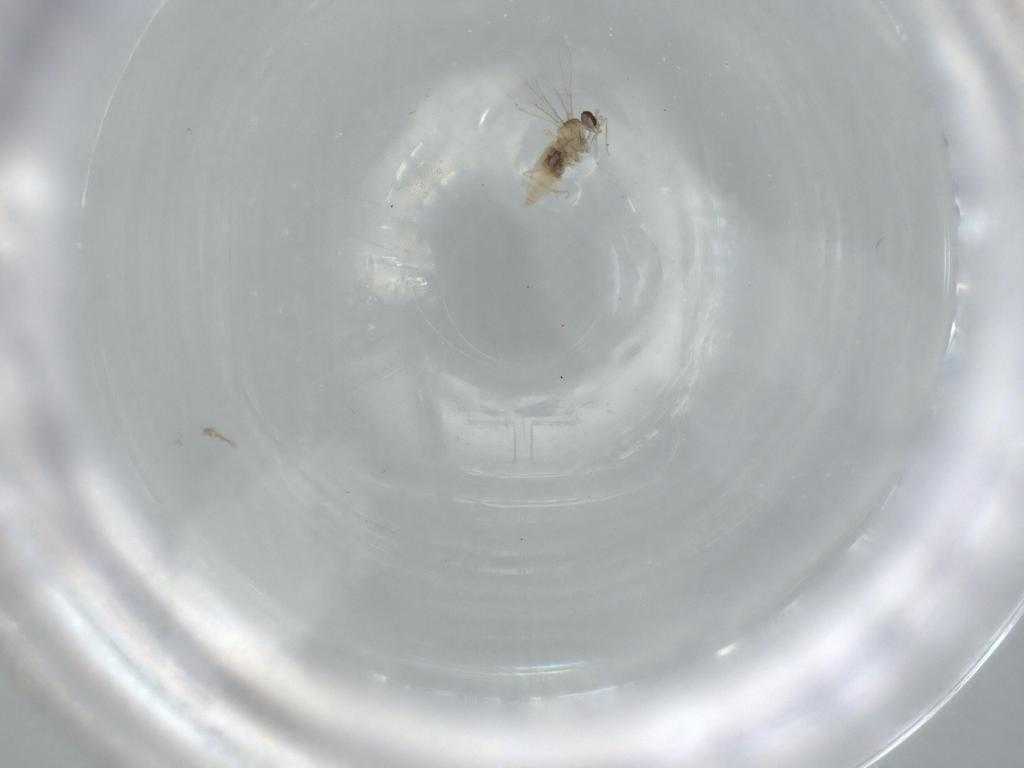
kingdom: Animalia
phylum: Arthropoda
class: Insecta
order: Diptera
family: Cecidomyiidae
